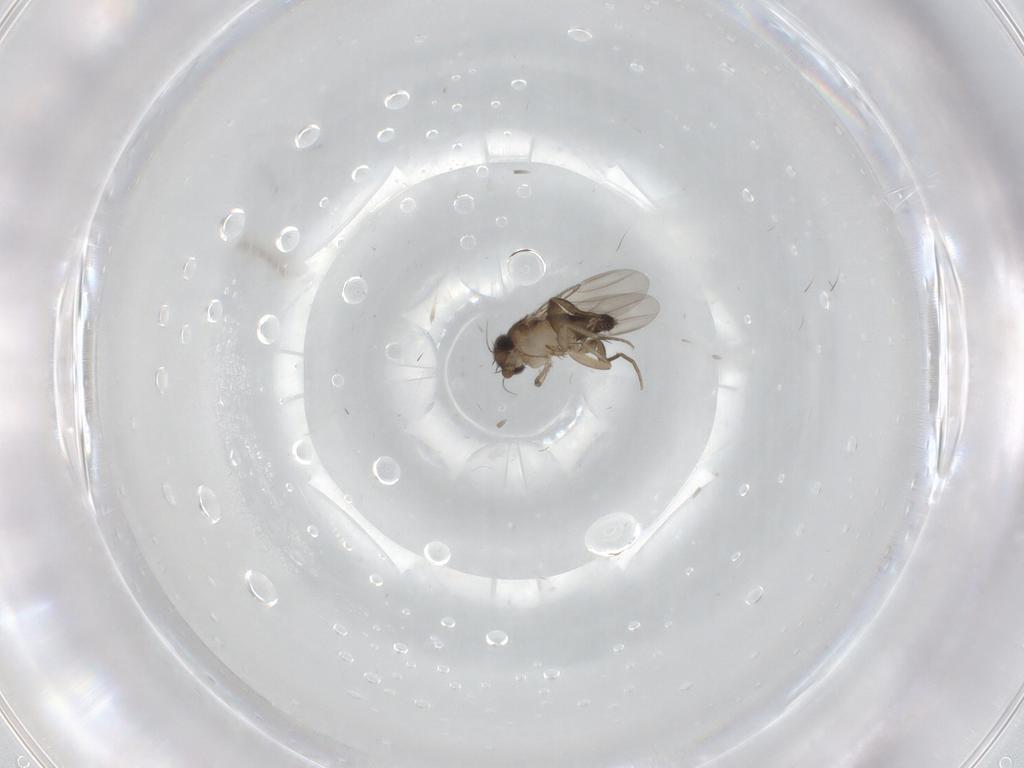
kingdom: Animalia
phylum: Arthropoda
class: Insecta
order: Diptera
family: Phoridae
